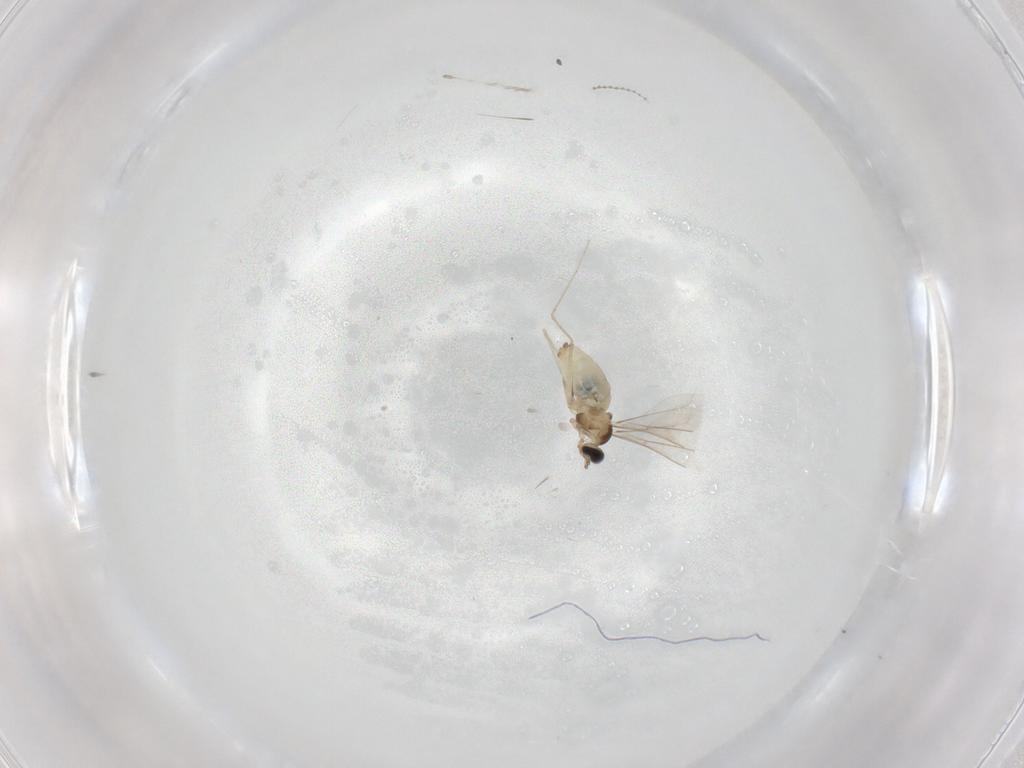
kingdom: Animalia
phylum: Arthropoda
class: Insecta
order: Diptera
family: Cecidomyiidae
